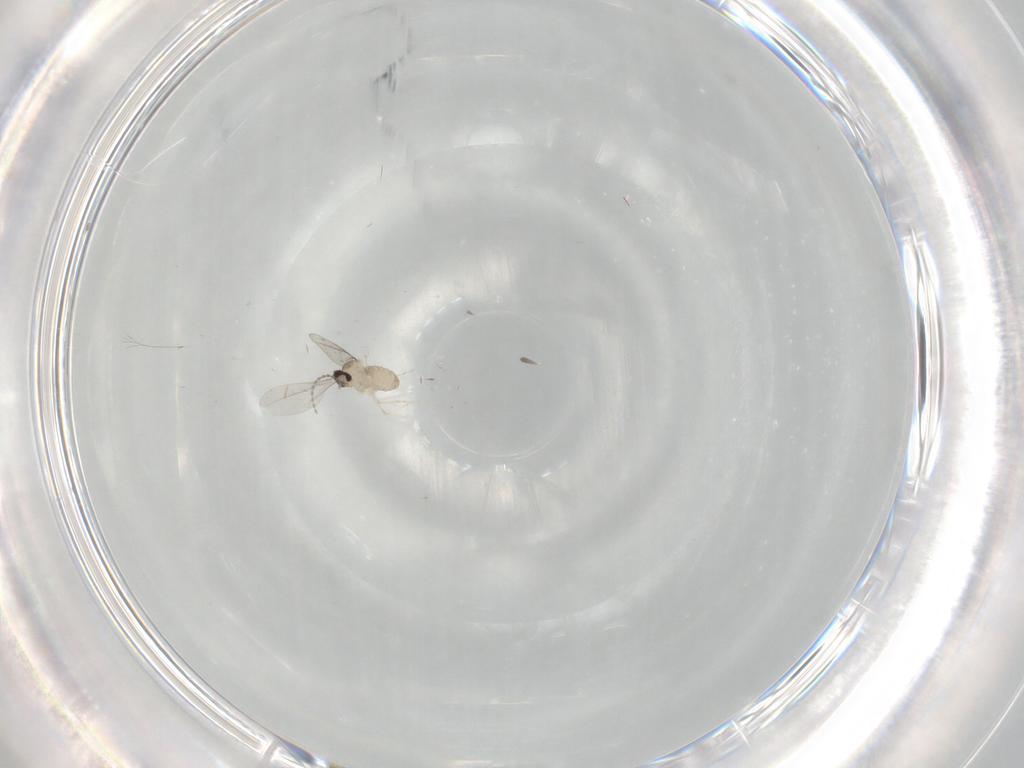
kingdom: Animalia
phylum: Arthropoda
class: Insecta
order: Diptera
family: Cecidomyiidae
